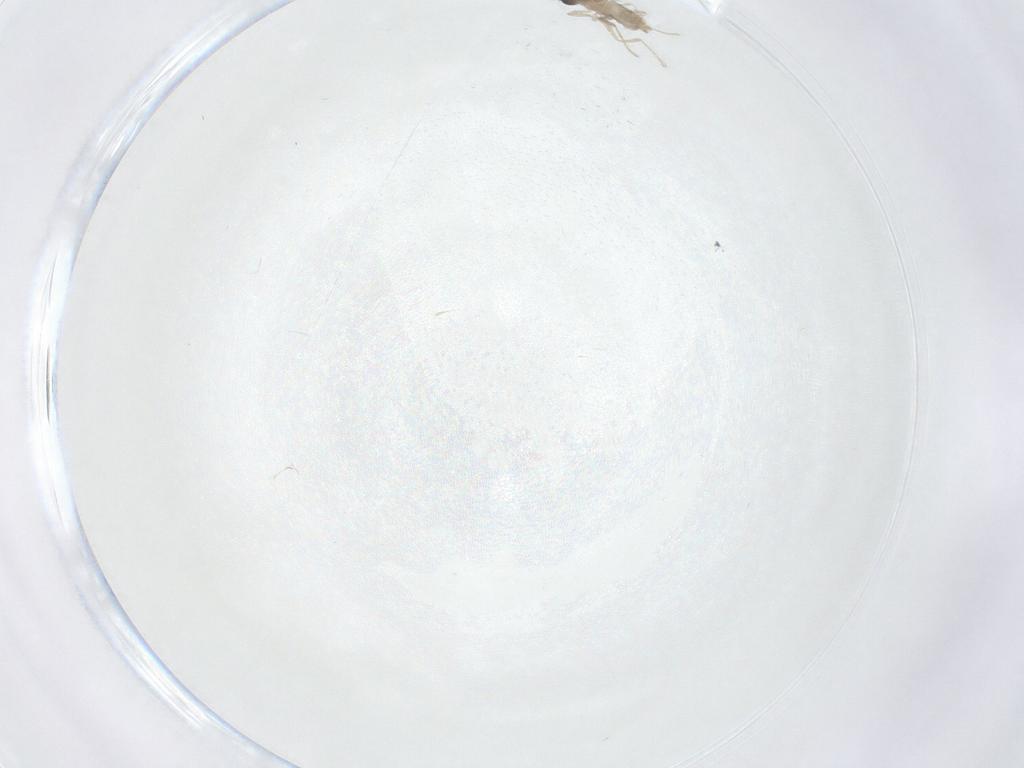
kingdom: Animalia
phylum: Arthropoda
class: Insecta
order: Diptera
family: Cecidomyiidae
